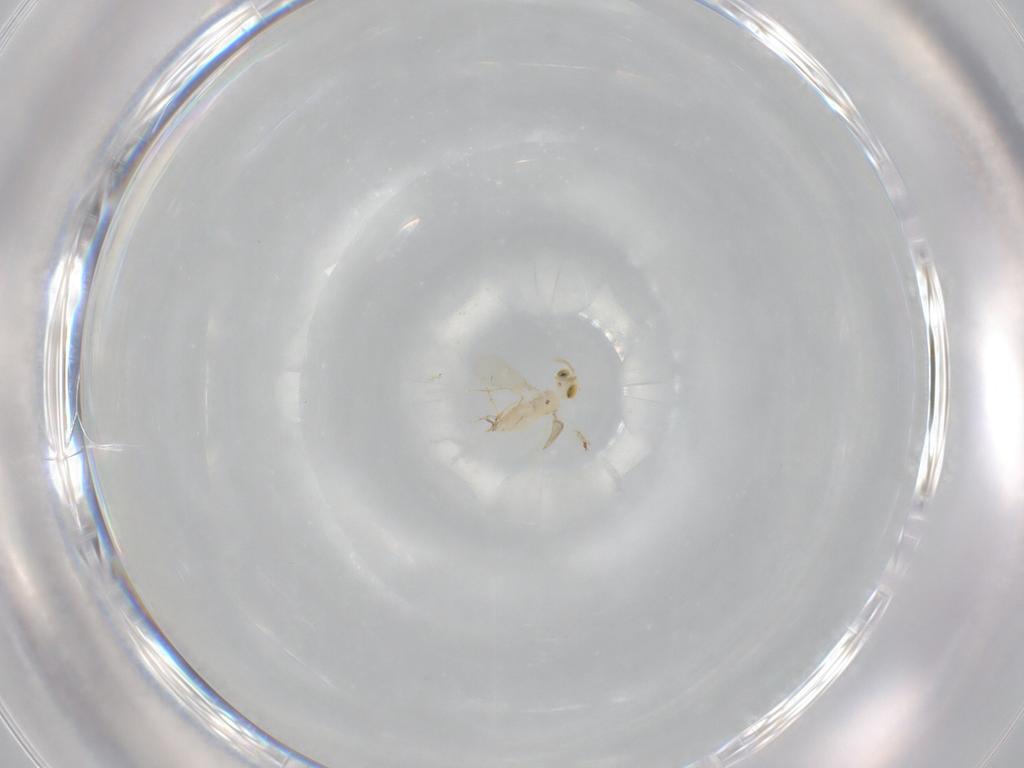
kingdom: Animalia
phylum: Arthropoda
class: Insecta
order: Hymenoptera
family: Aphelinidae
